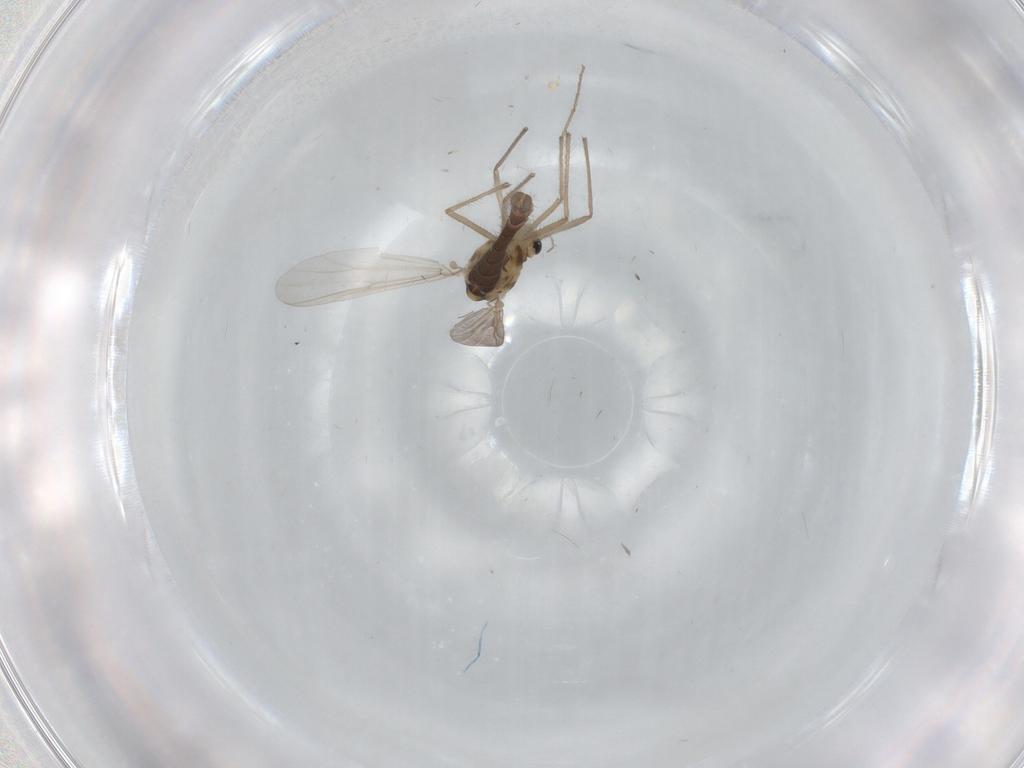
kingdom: Animalia
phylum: Arthropoda
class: Insecta
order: Diptera
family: Chironomidae
